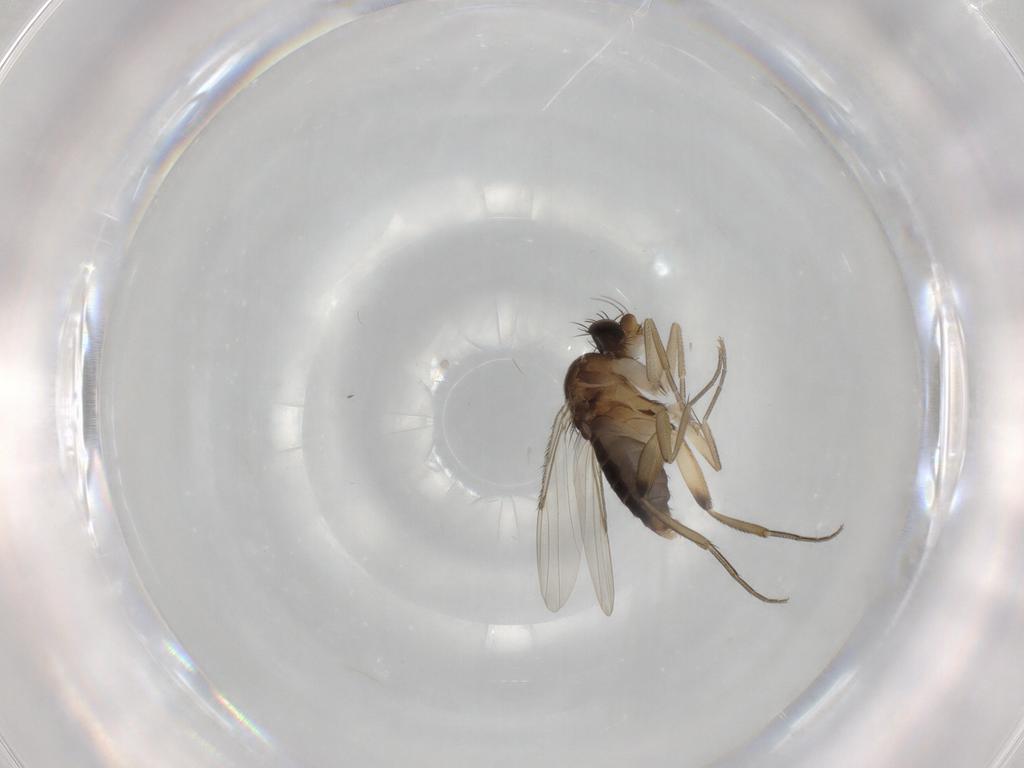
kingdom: Animalia
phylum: Arthropoda
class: Insecta
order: Diptera
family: Phoridae
